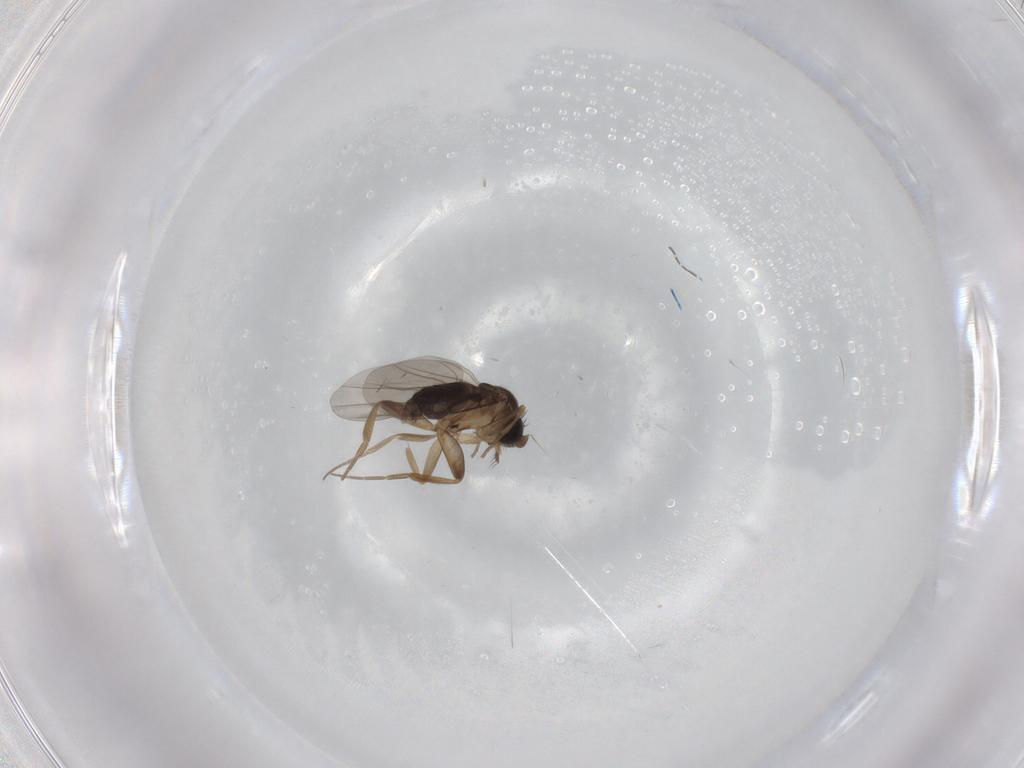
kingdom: Animalia
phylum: Arthropoda
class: Insecta
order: Diptera
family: Phoridae
